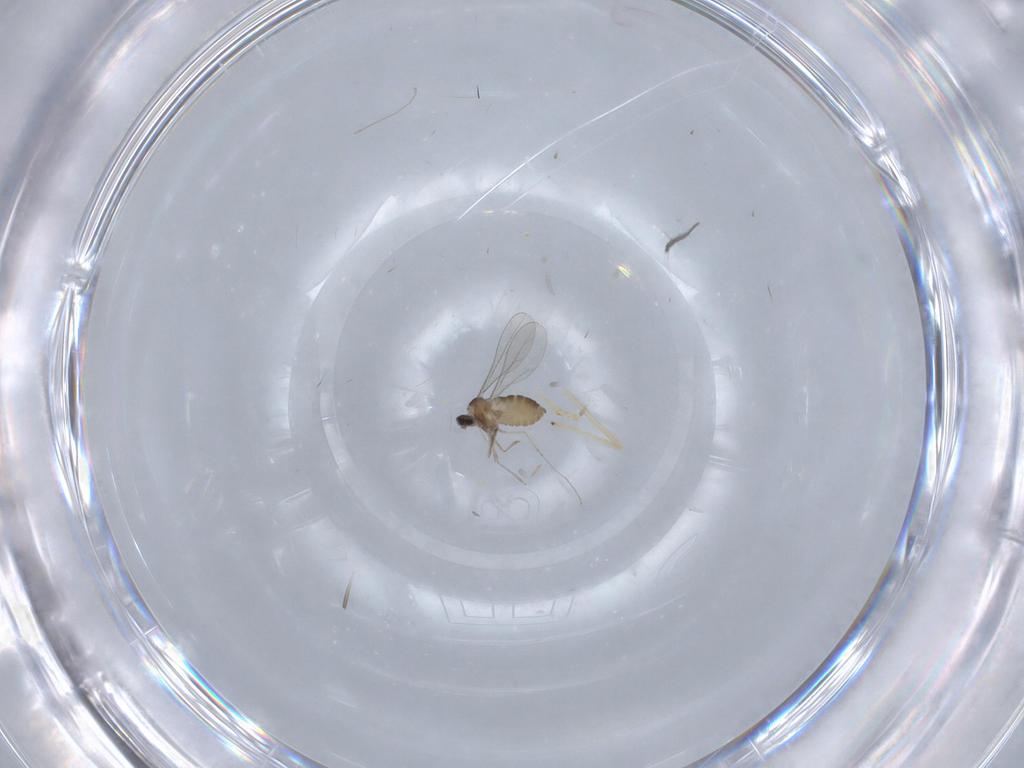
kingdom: Animalia
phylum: Arthropoda
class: Insecta
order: Diptera
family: Cecidomyiidae
